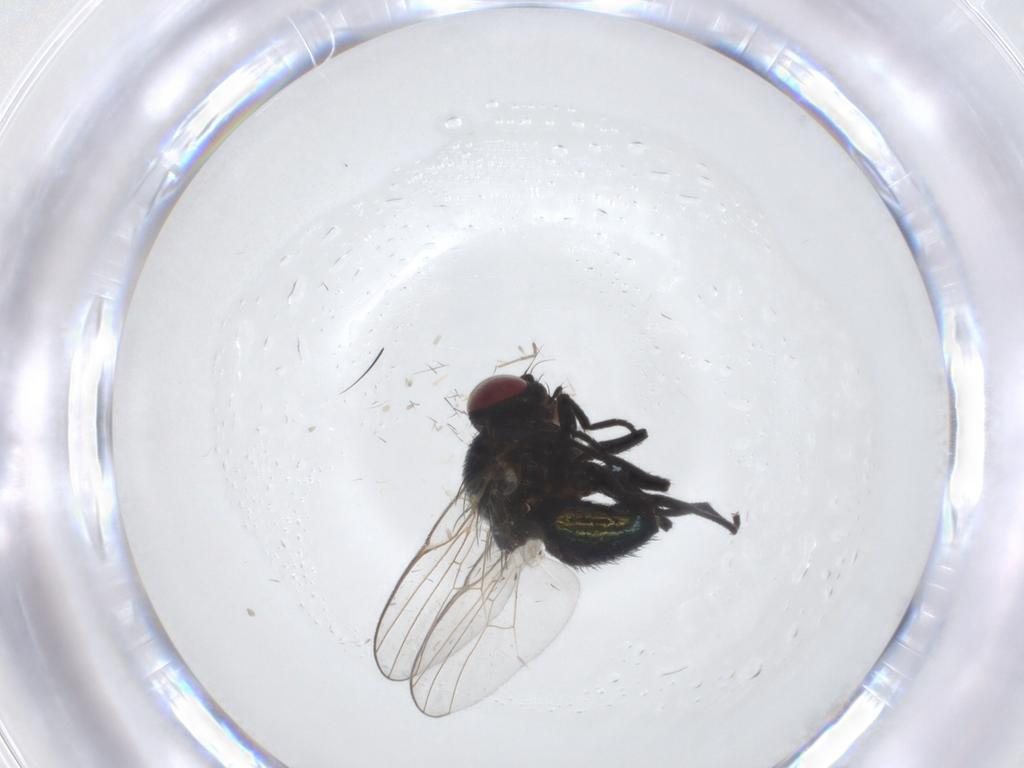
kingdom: Animalia
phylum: Arthropoda
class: Insecta
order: Diptera
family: Agromyzidae
